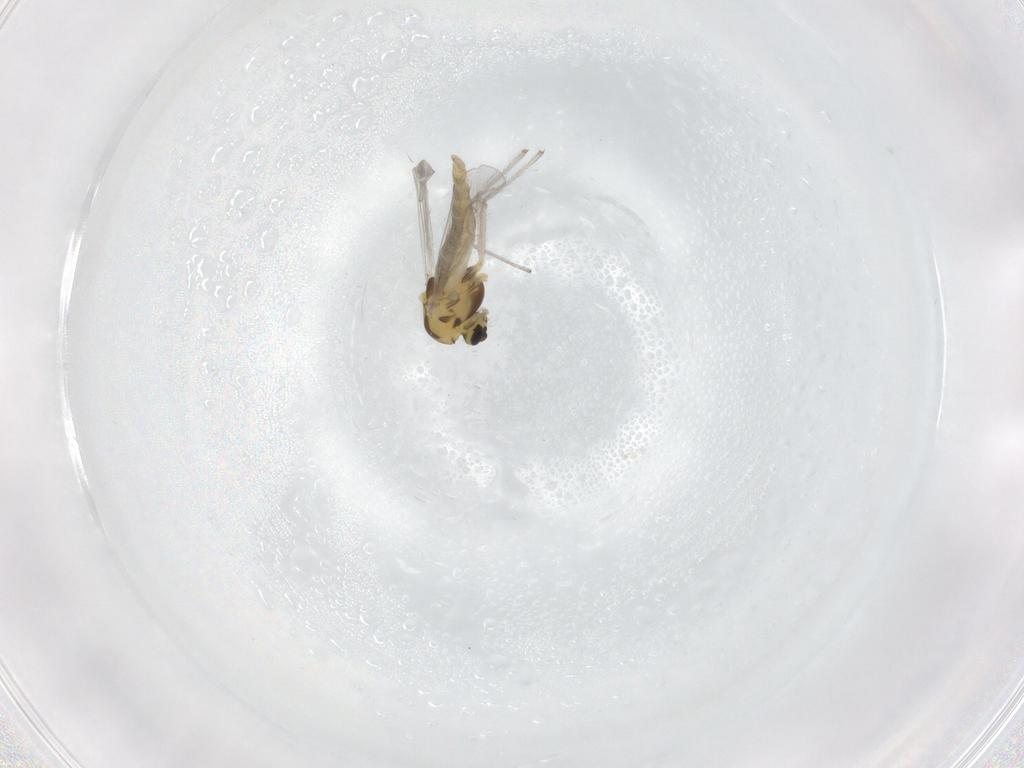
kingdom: Animalia
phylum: Arthropoda
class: Insecta
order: Diptera
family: Chironomidae
